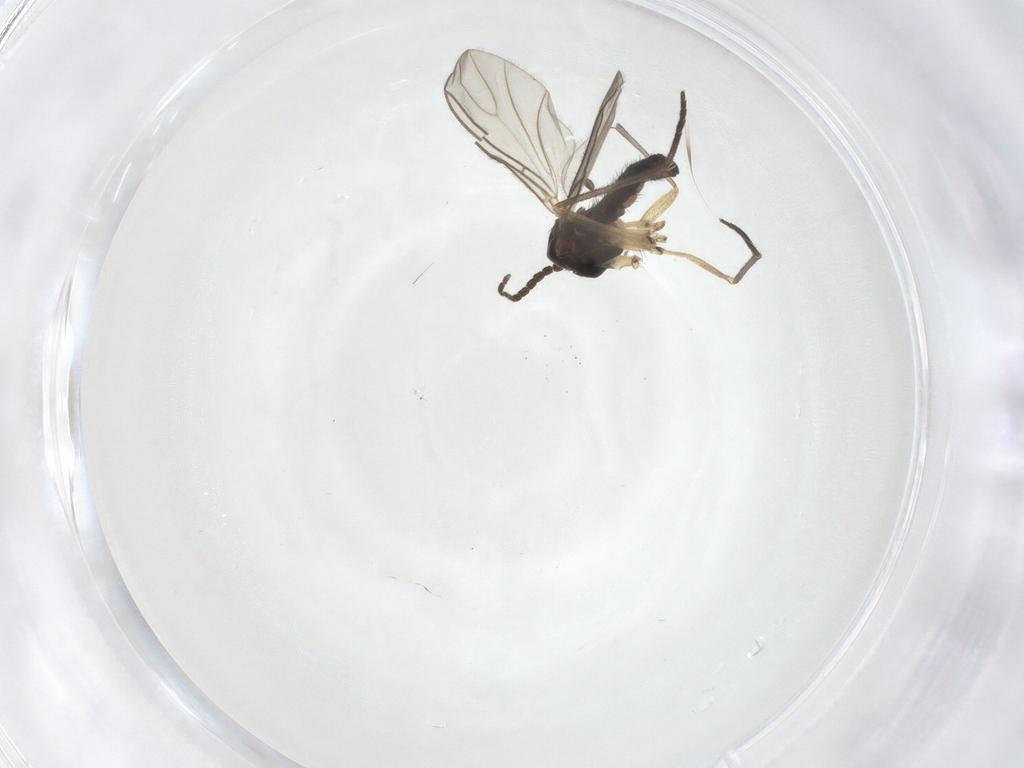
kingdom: Animalia
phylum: Arthropoda
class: Insecta
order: Diptera
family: Sciaridae
